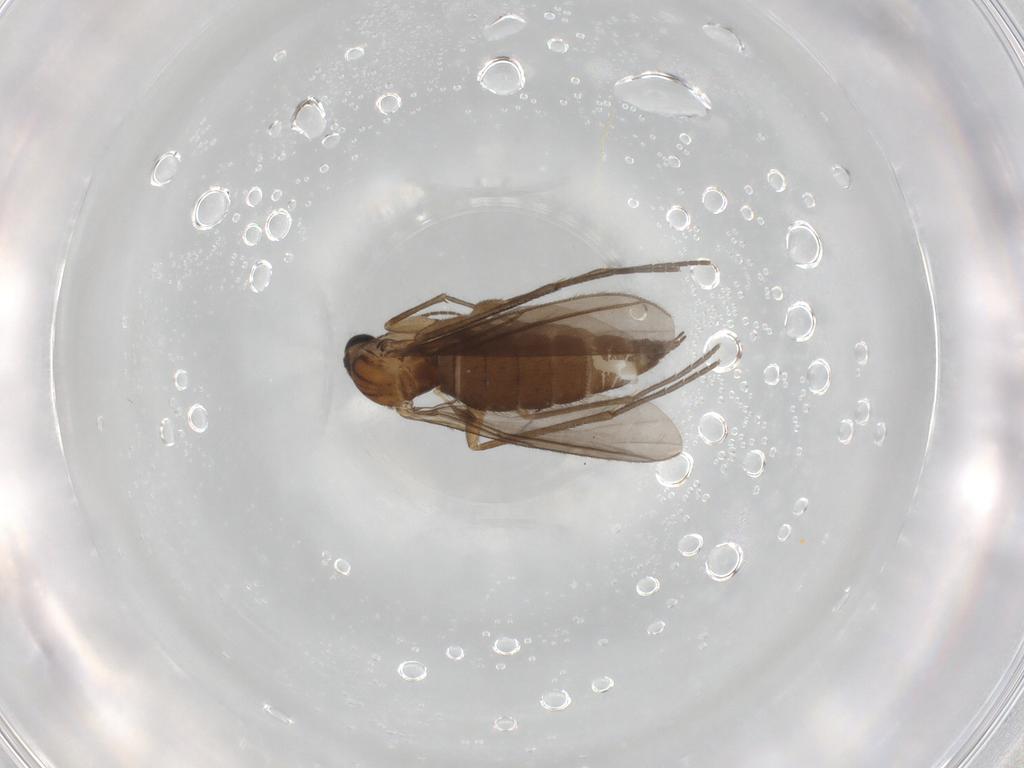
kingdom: Animalia
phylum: Arthropoda
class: Insecta
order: Diptera
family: Sciaridae
